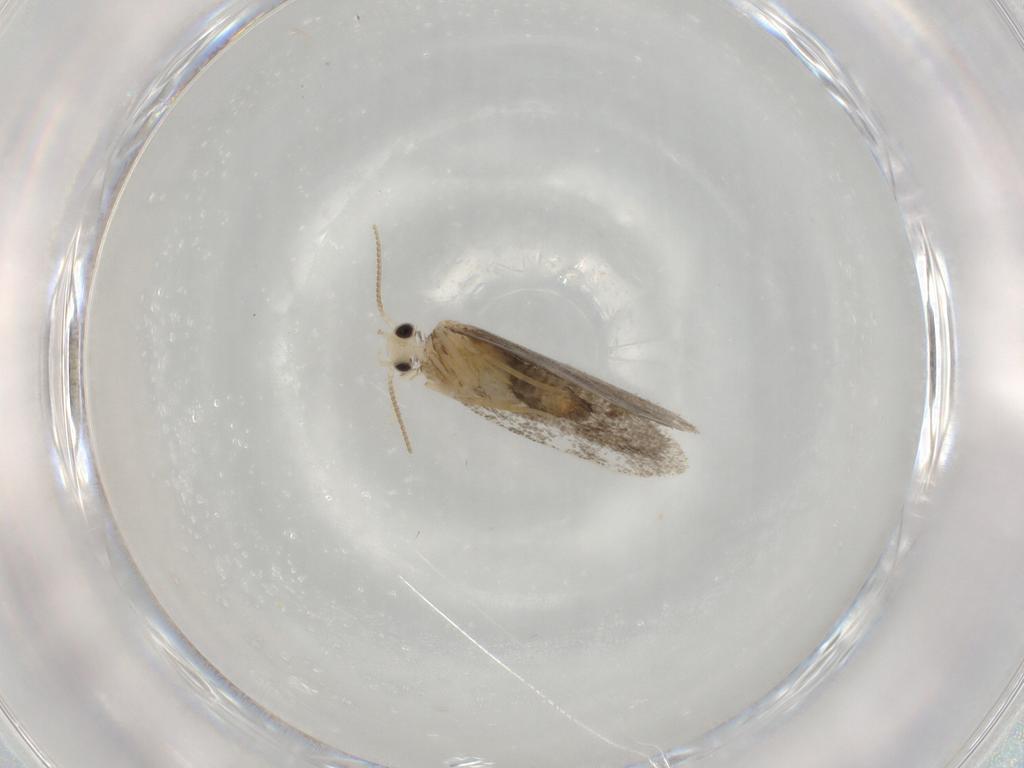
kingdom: Animalia
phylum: Arthropoda
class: Insecta
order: Lepidoptera
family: Psychidae
